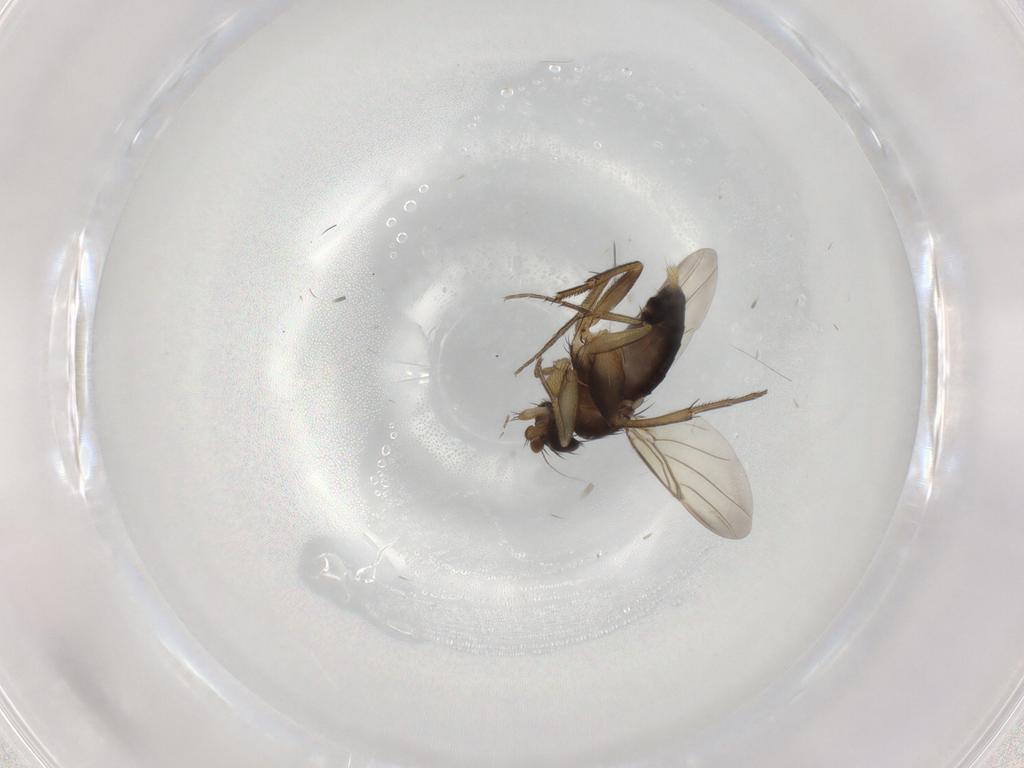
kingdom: Animalia
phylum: Arthropoda
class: Insecta
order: Diptera
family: Phoridae
